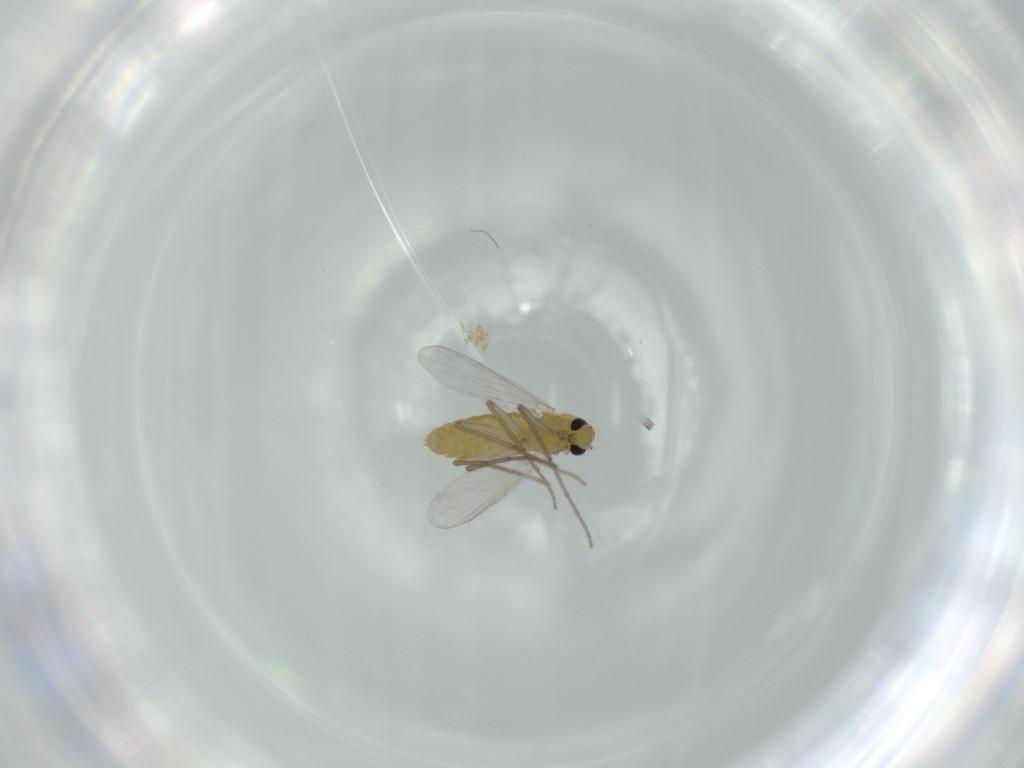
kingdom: Animalia
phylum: Arthropoda
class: Insecta
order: Diptera
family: Chironomidae
